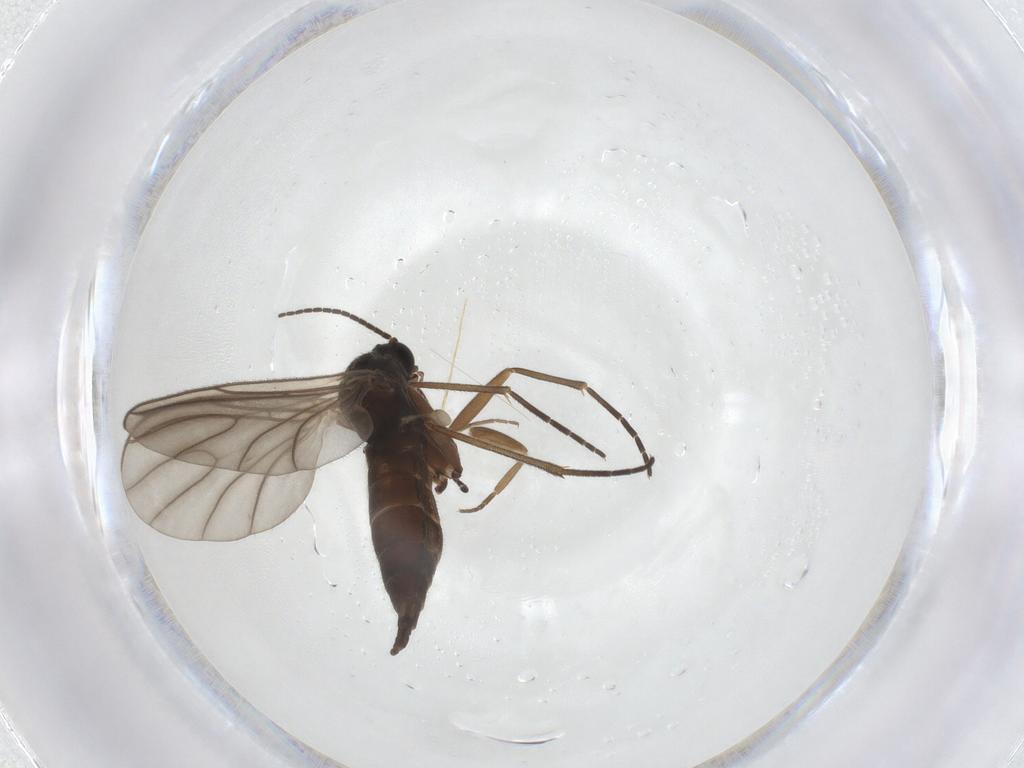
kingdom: Animalia
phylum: Arthropoda
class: Insecta
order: Diptera
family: Sciaridae
